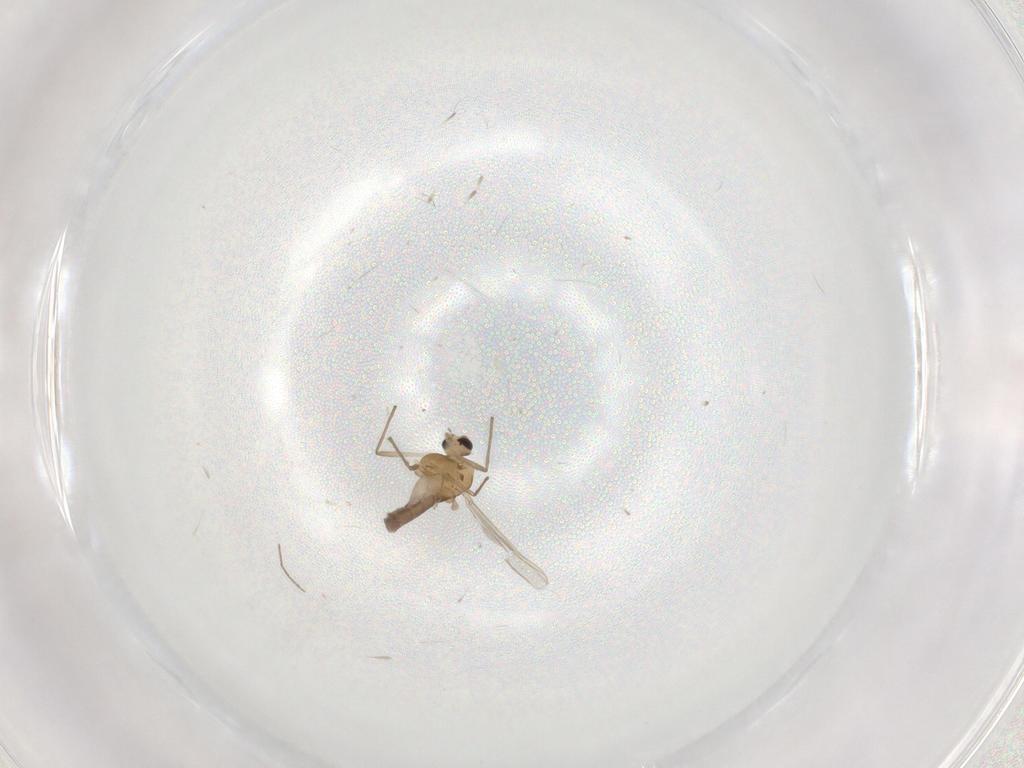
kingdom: Animalia
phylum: Arthropoda
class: Insecta
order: Diptera
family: Chironomidae
